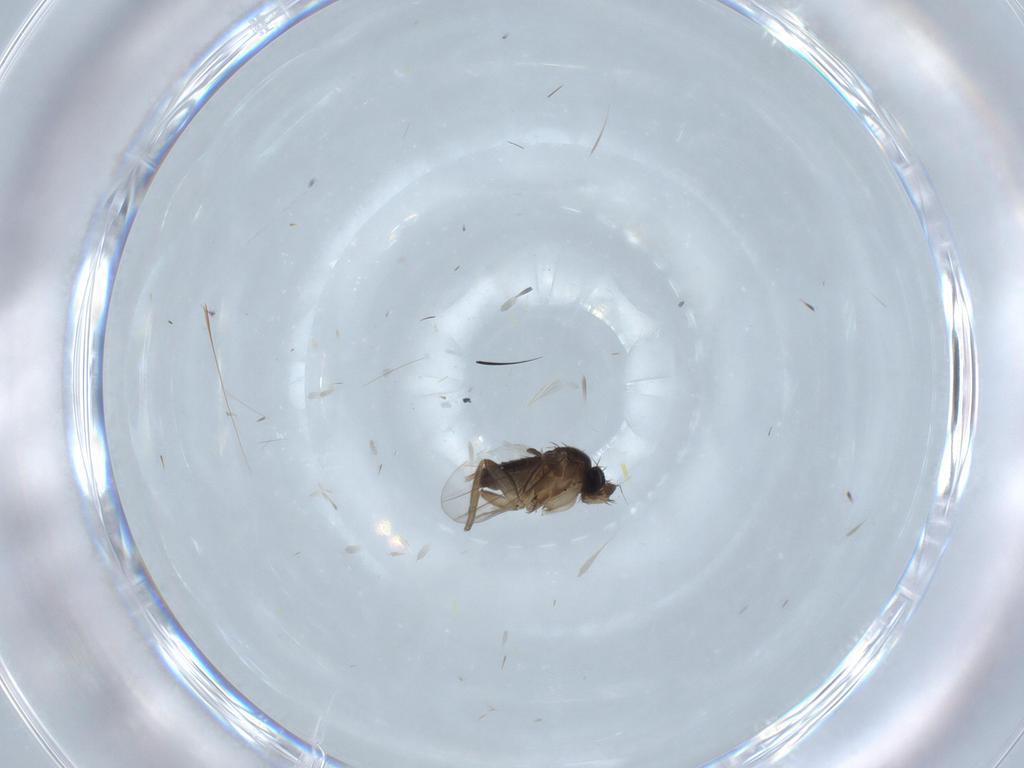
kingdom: Animalia
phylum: Arthropoda
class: Insecta
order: Diptera
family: Phoridae
